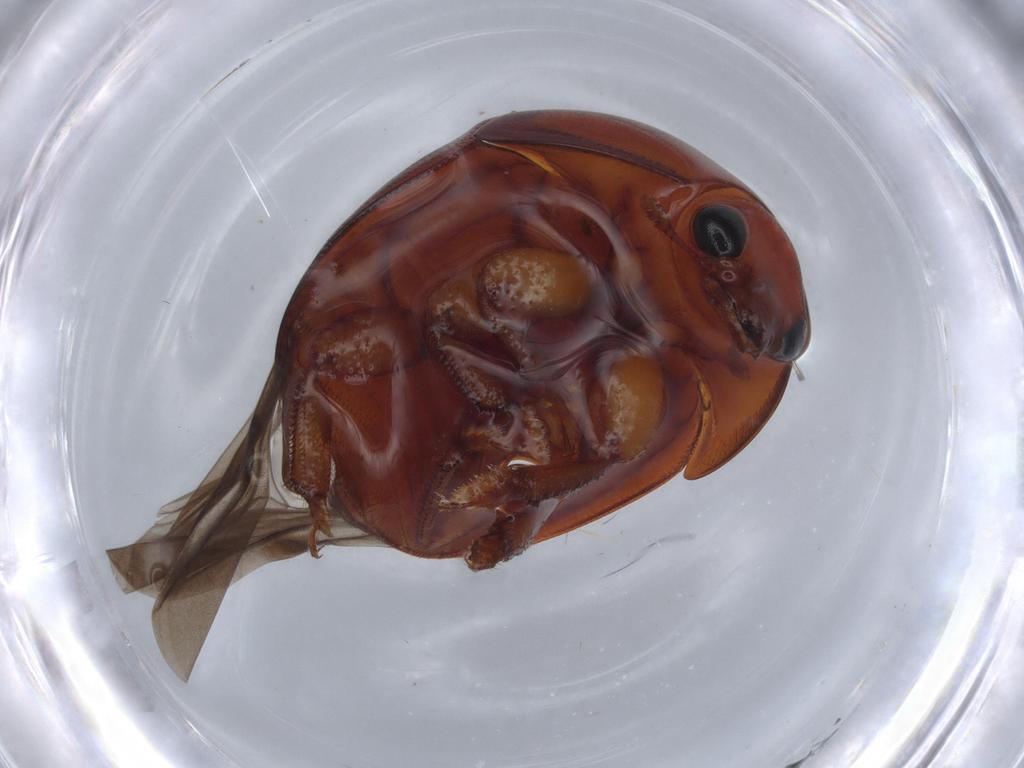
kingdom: Animalia
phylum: Arthropoda
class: Insecta
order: Coleoptera
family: Nitidulidae
